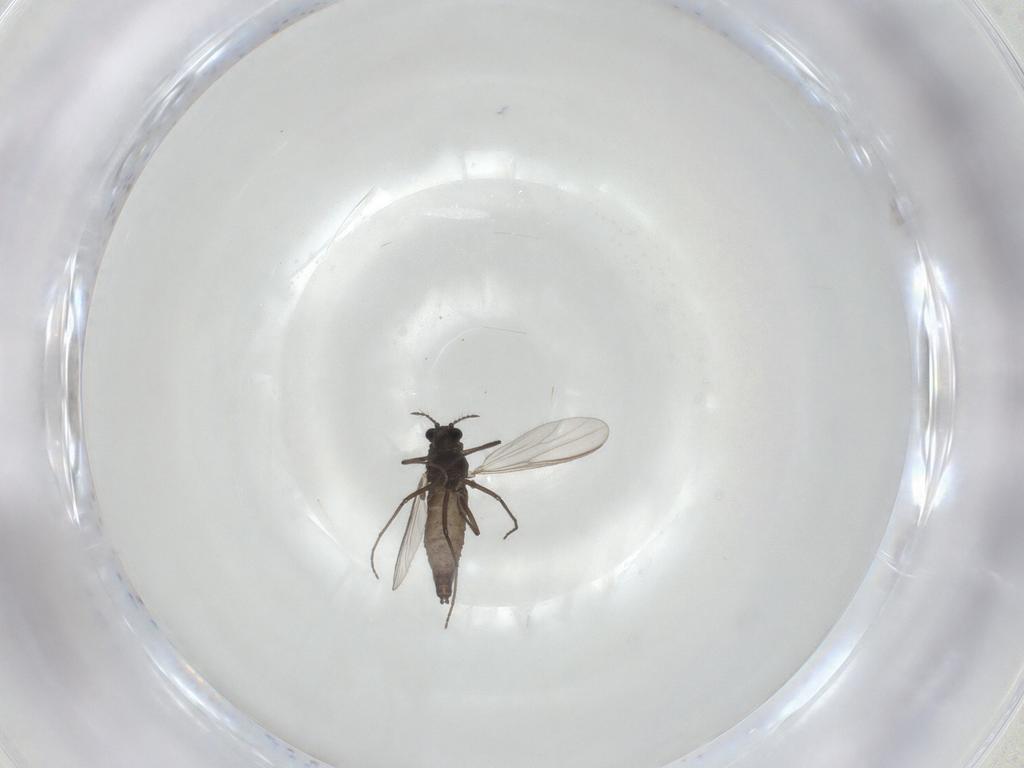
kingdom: Animalia
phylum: Arthropoda
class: Insecta
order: Diptera
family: Chironomidae
